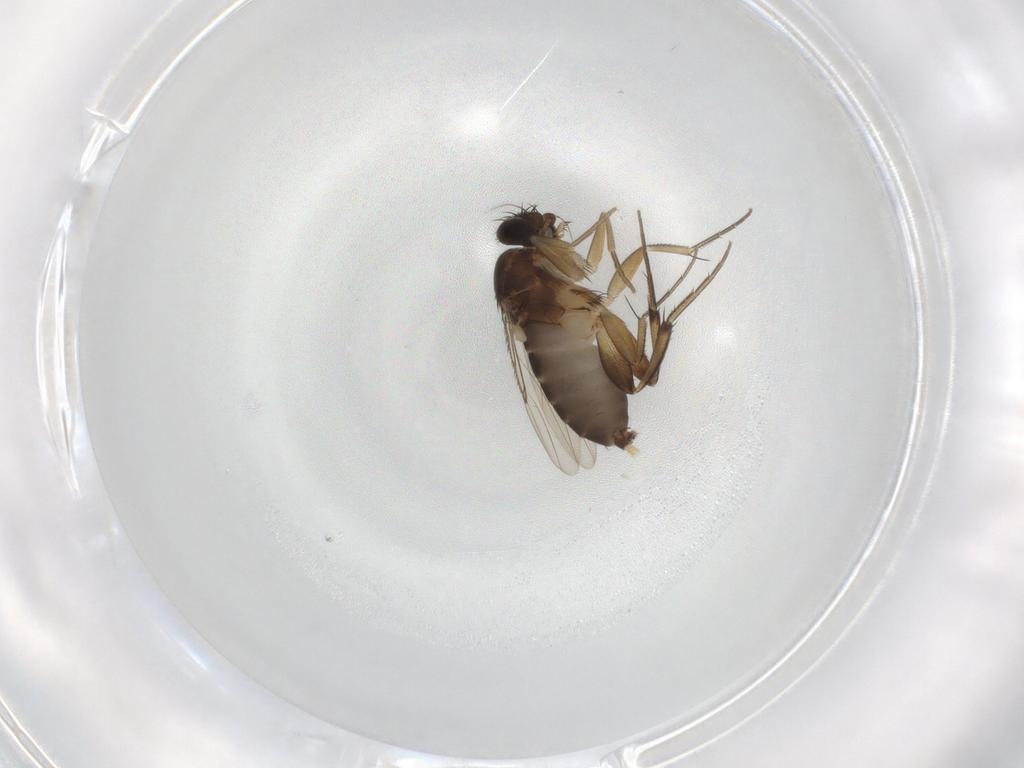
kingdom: Animalia
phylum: Arthropoda
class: Insecta
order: Diptera
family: Phoridae
